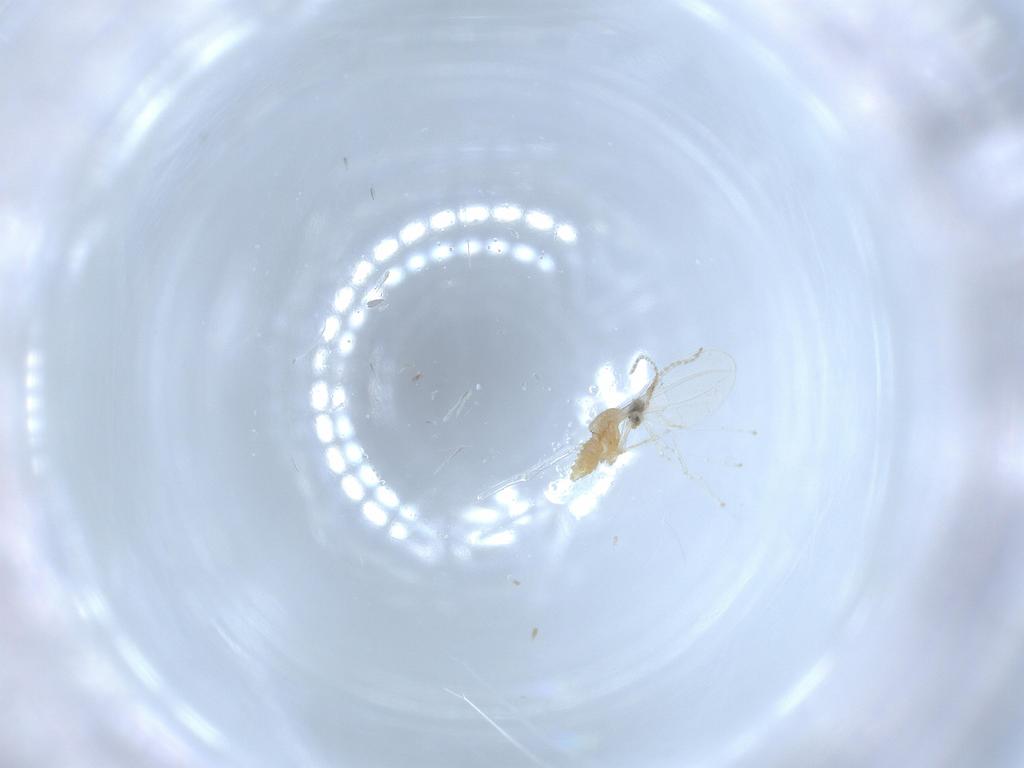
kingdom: Animalia
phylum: Arthropoda
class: Insecta
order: Diptera
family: Cecidomyiidae
